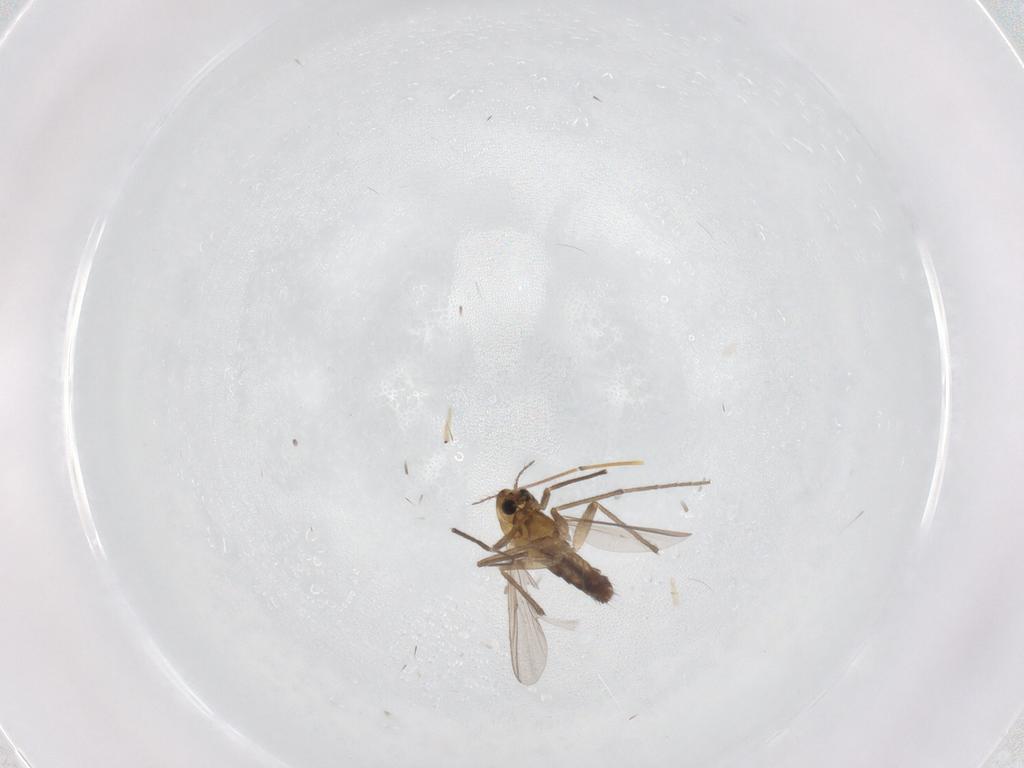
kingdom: Animalia
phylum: Arthropoda
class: Insecta
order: Diptera
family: Chironomidae
